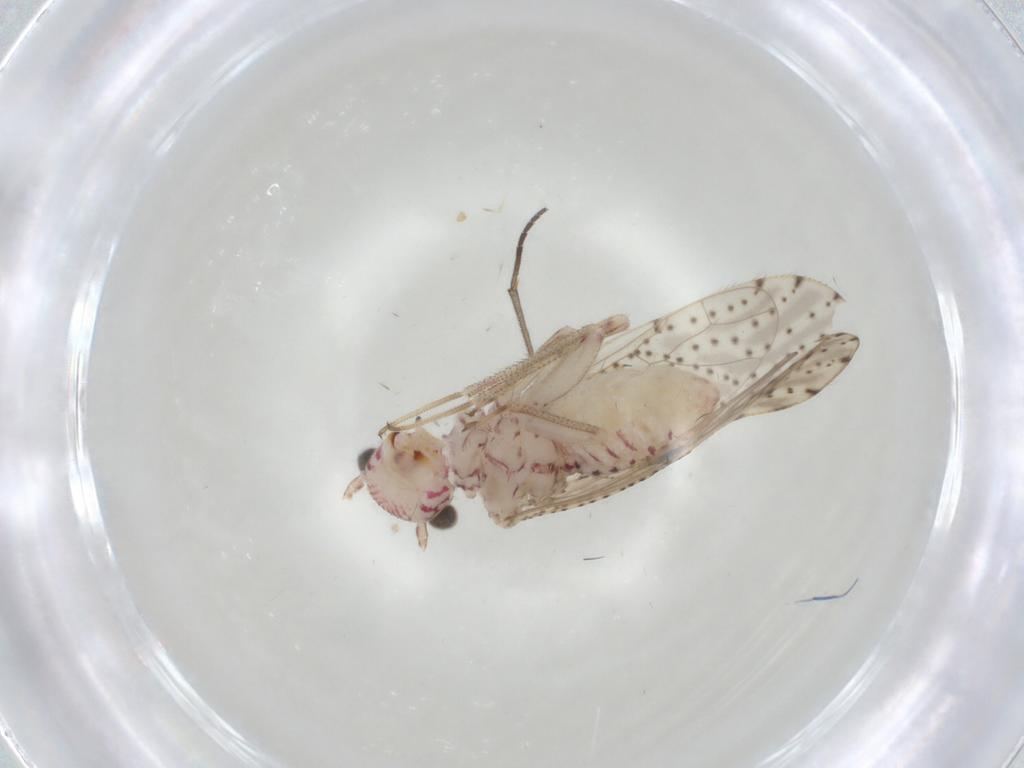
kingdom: Animalia
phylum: Arthropoda
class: Insecta
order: Psocodea
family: Philotarsidae
